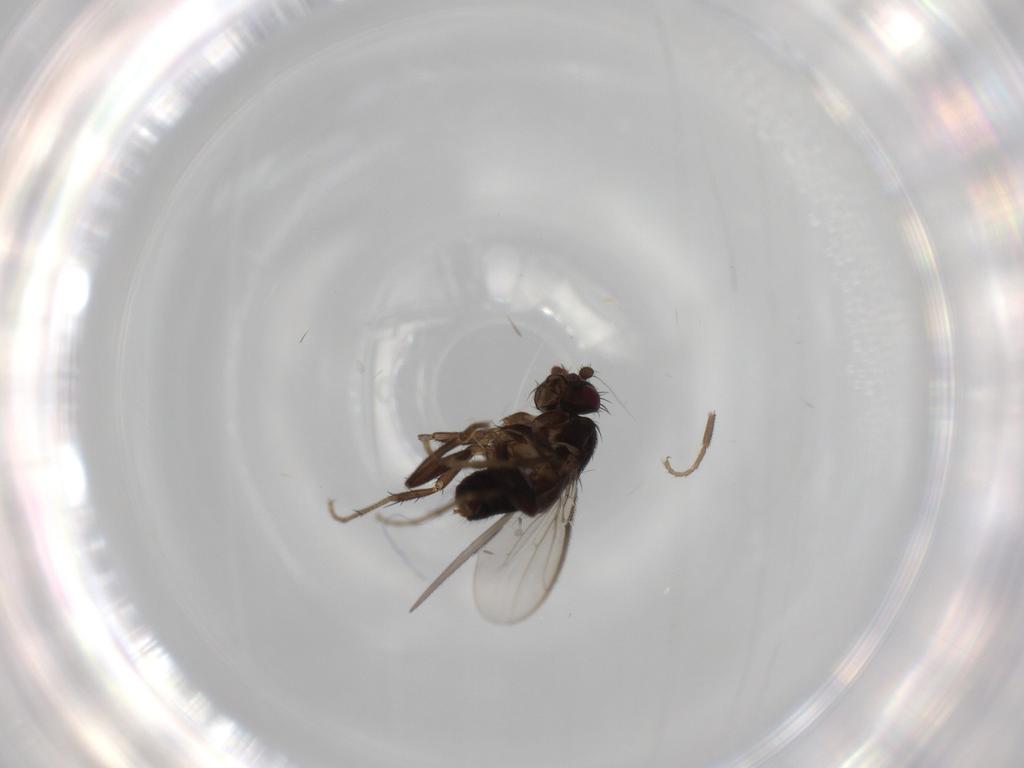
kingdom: Animalia
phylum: Arthropoda
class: Insecta
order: Diptera
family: Sphaeroceridae
